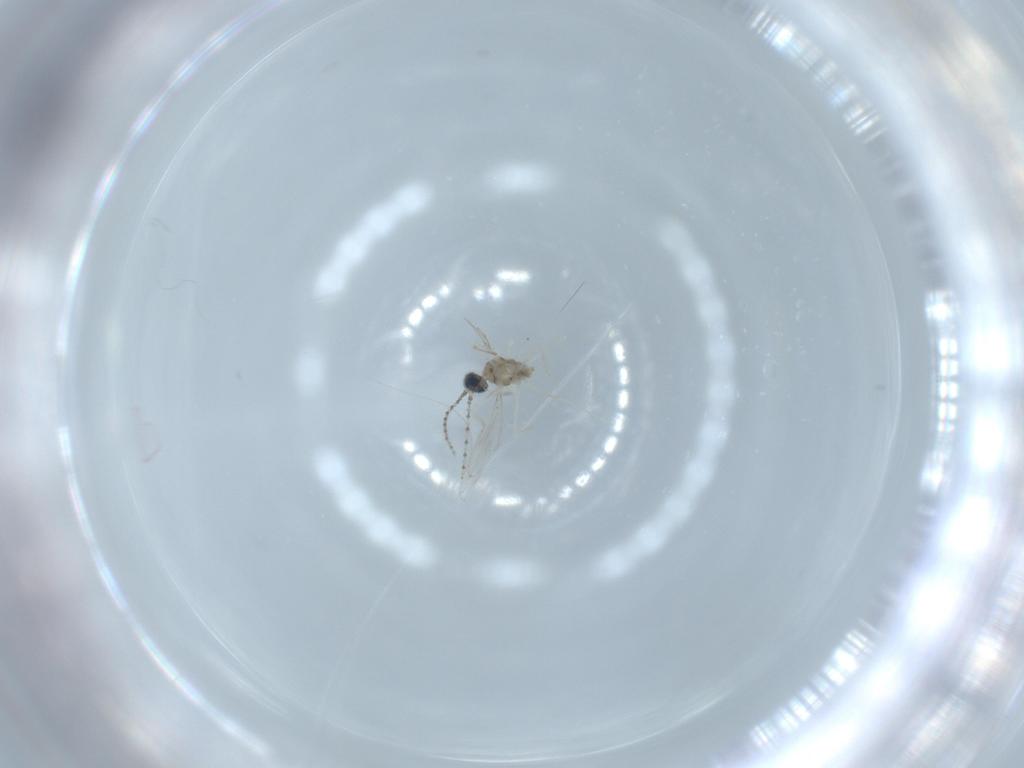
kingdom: Animalia
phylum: Arthropoda
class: Insecta
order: Diptera
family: Cecidomyiidae
